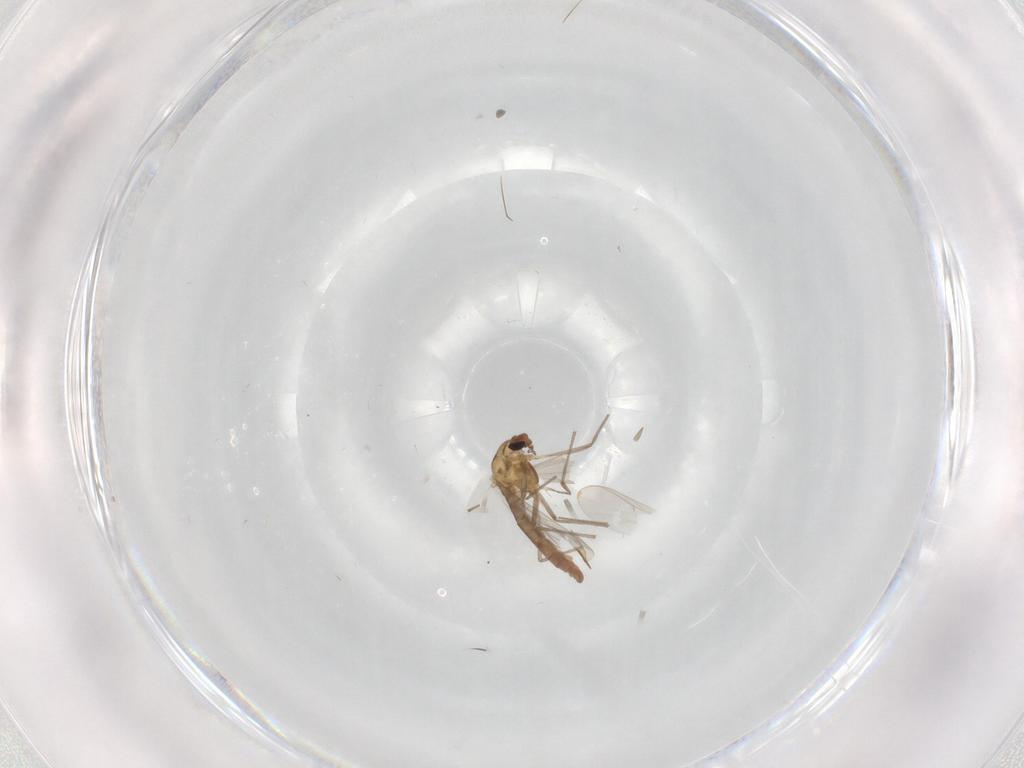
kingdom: Animalia
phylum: Arthropoda
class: Insecta
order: Diptera
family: Chironomidae
